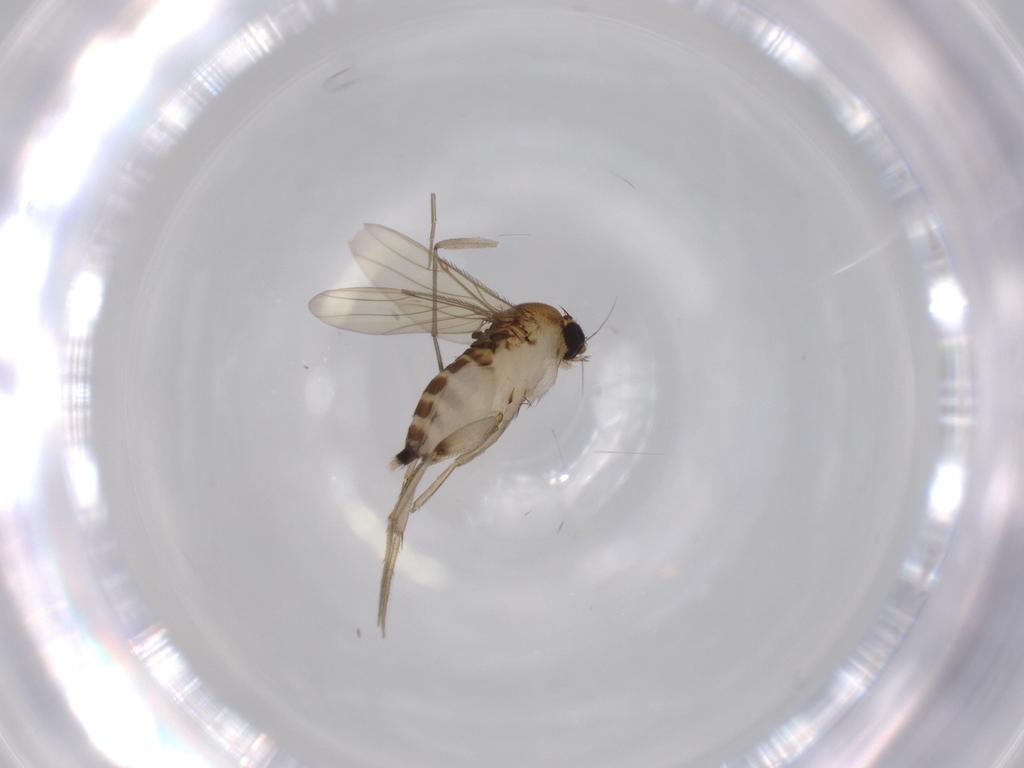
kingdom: Animalia
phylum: Arthropoda
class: Insecta
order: Diptera
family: Phoridae
